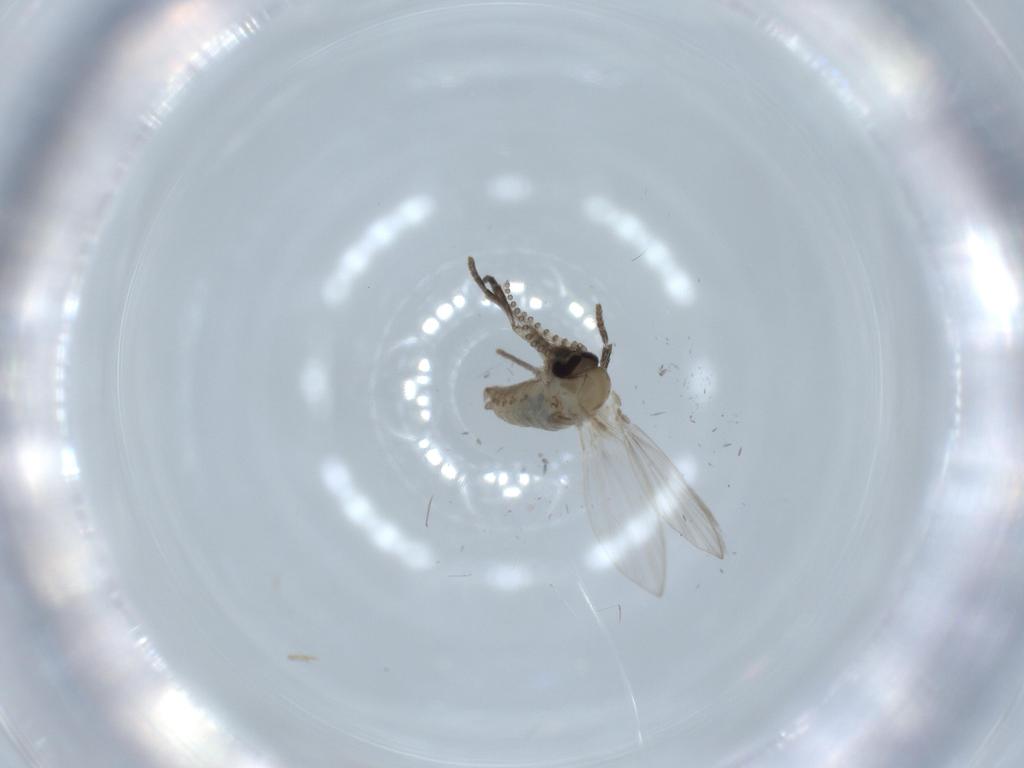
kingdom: Animalia
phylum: Arthropoda
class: Insecta
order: Diptera
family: Psychodidae
